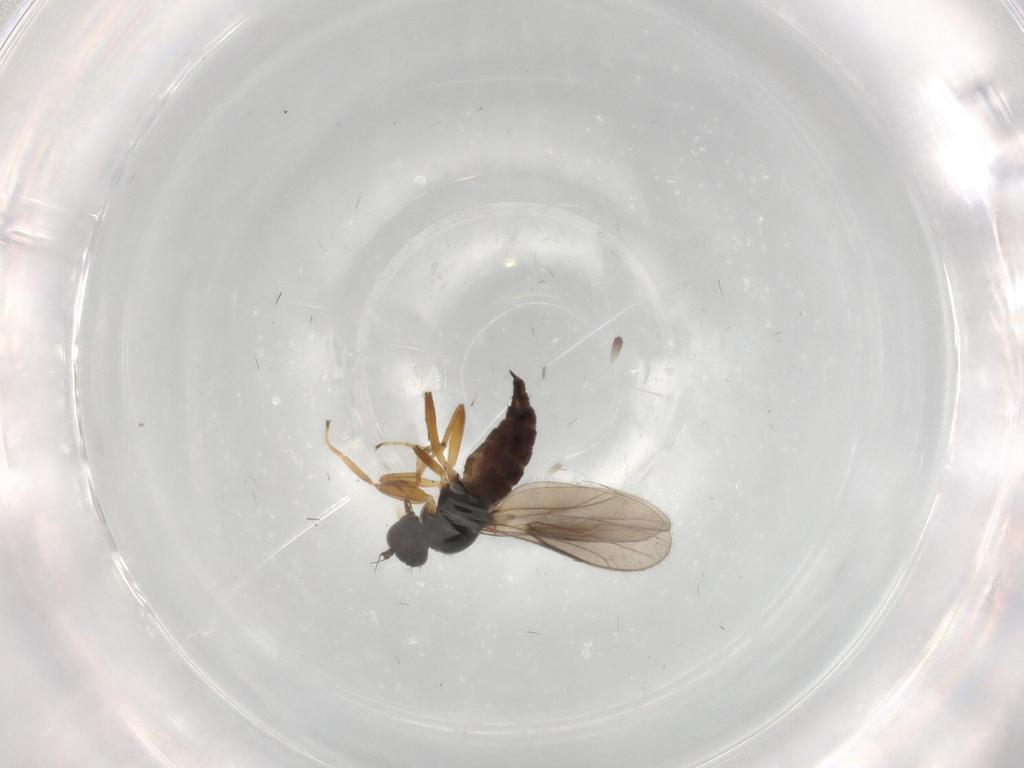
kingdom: Animalia
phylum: Arthropoda
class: Insecta
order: Diptera
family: Hybotidae
